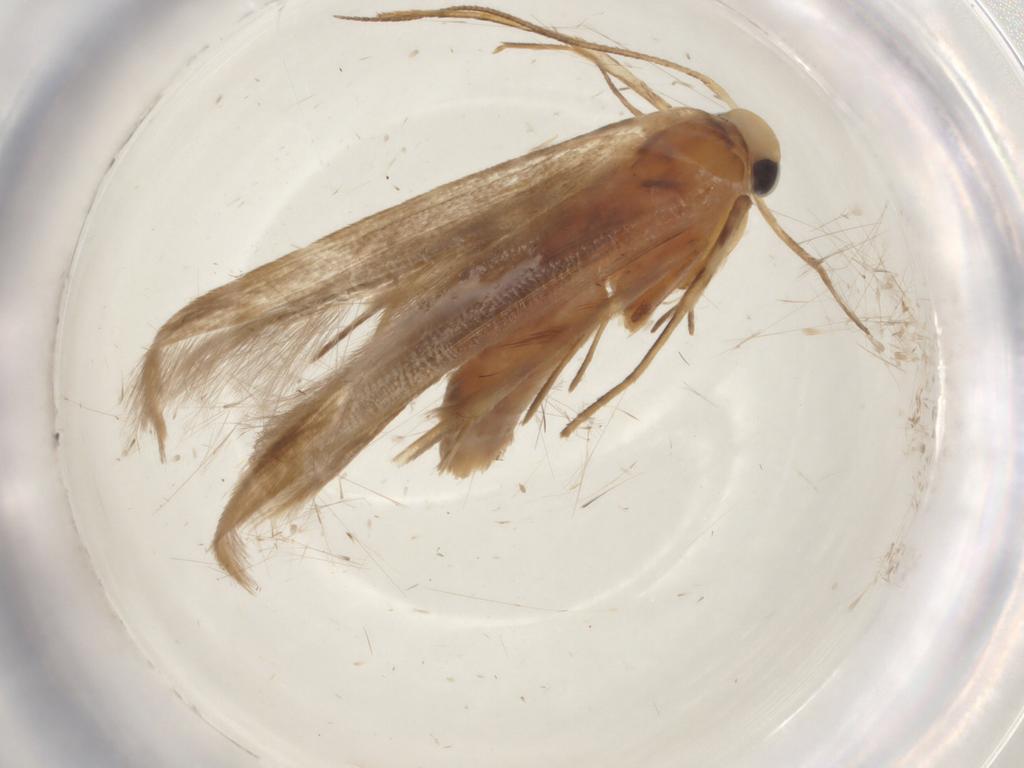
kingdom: Animalia
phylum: Arthropoda
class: Insecta
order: Lepidoptera
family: Gelechiidae
